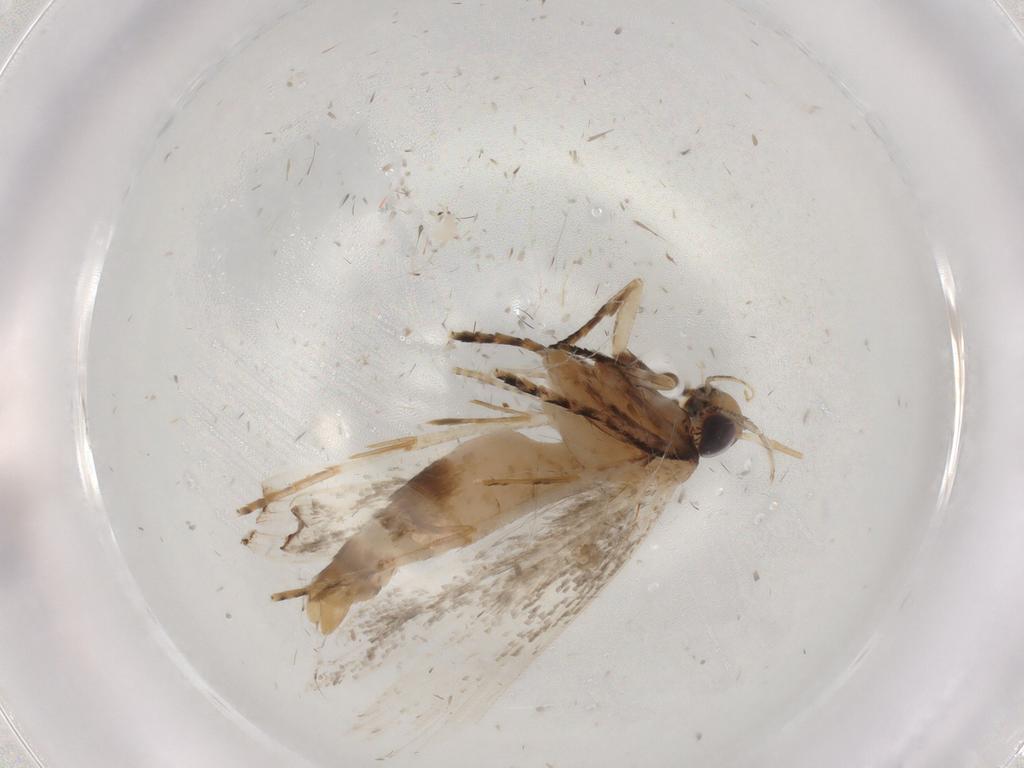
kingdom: Animalia
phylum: Arthropoda
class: Insecta
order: Lepidoptera
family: Gelechiidae
